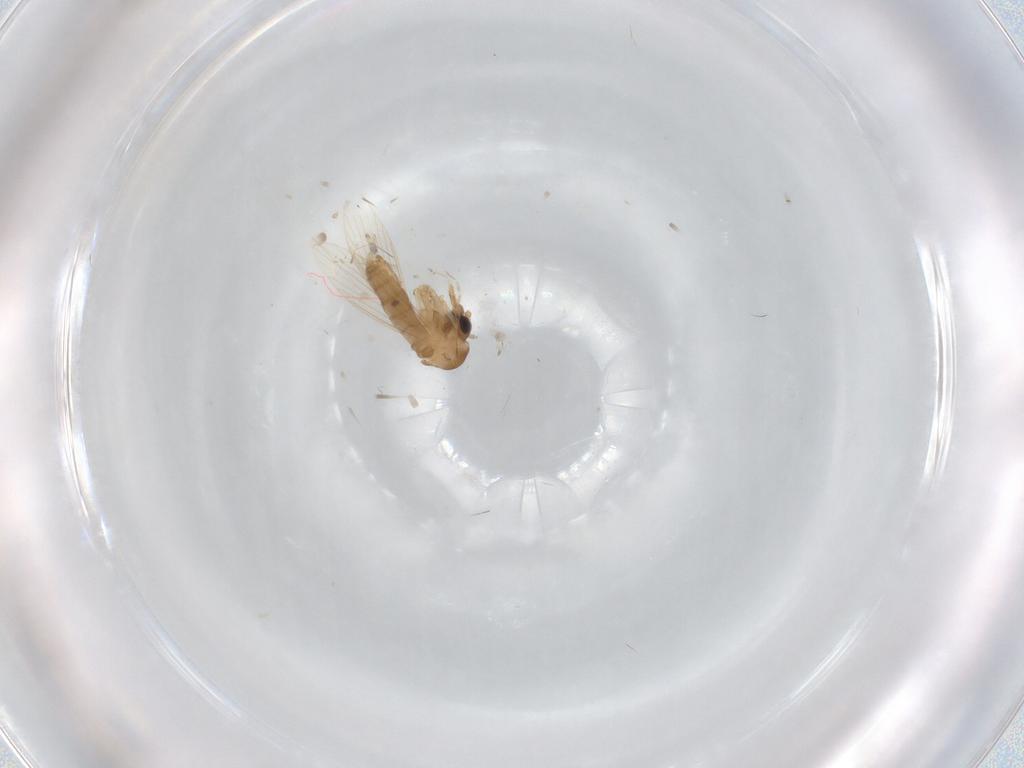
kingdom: Animalia
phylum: Arthropoda
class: Insecta
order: Diptera
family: Psychodidae
